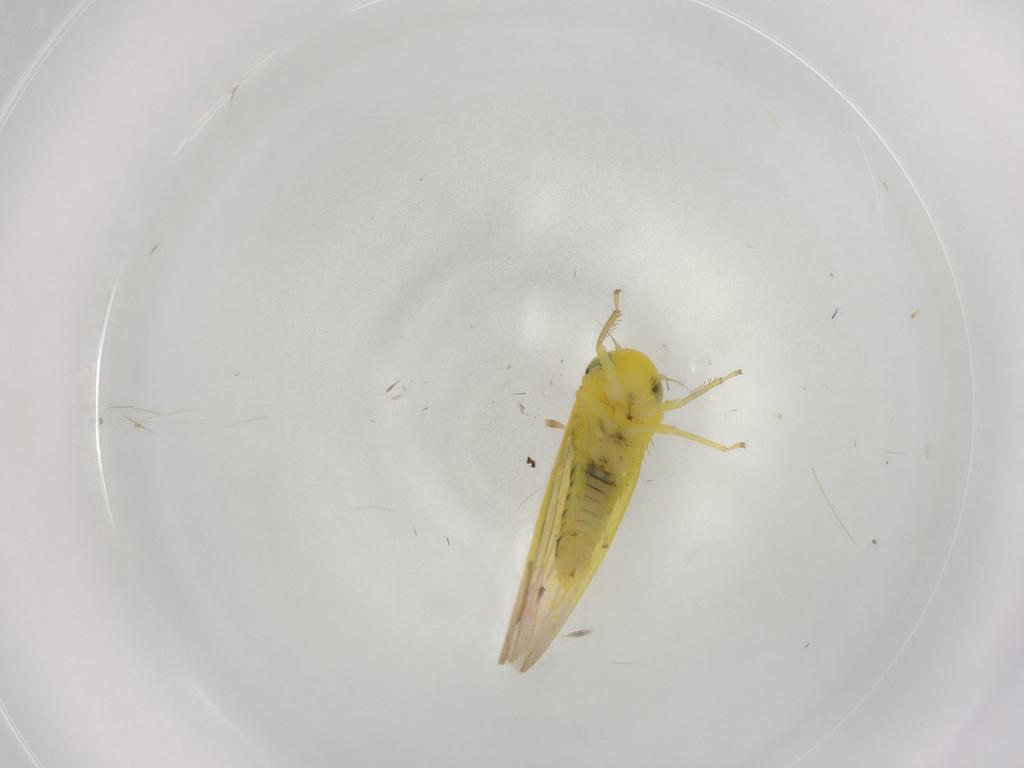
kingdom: Animalia
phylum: Arthropoda
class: Insecta
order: Hemiptera
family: Cicadellidae
